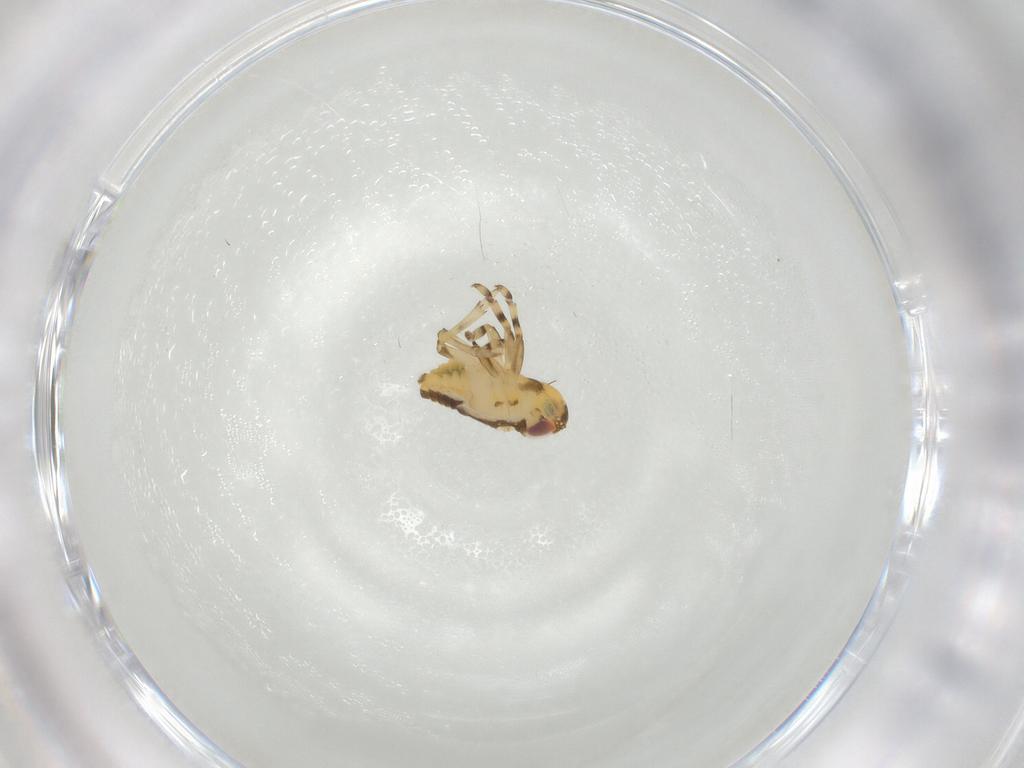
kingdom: Animalia
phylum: Arthropoda
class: Insecta
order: Hemiptera
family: Issidae
